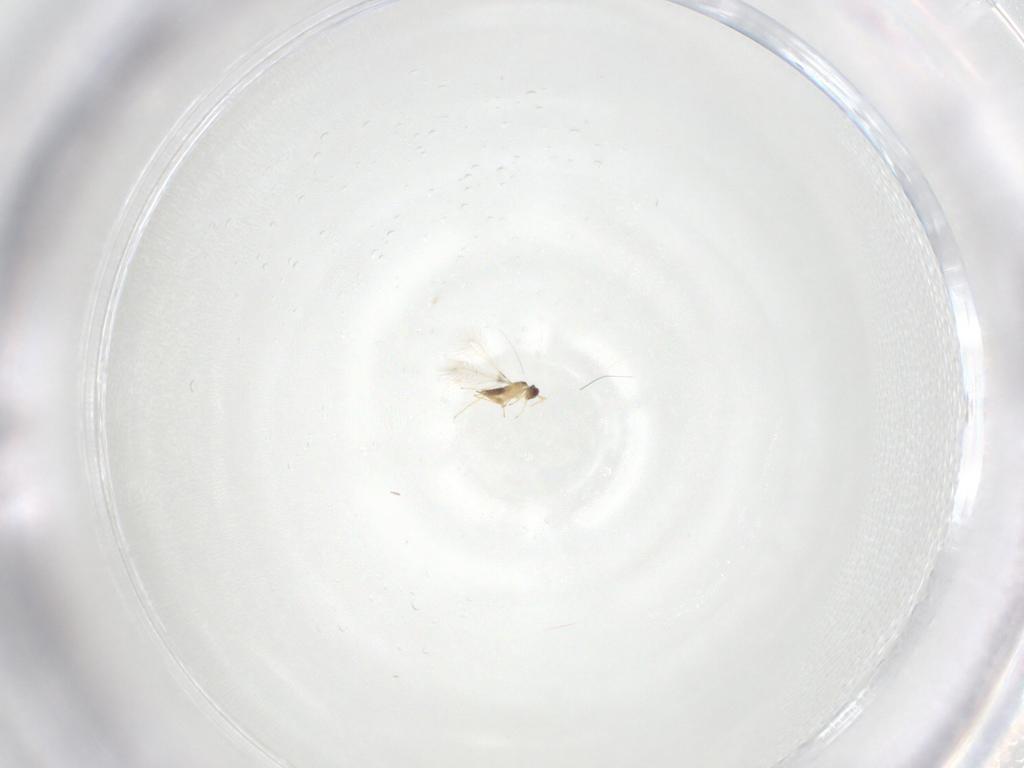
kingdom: Animalia
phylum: Arthropoda
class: Insecta
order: Hymenoptera
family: Mymaridae
